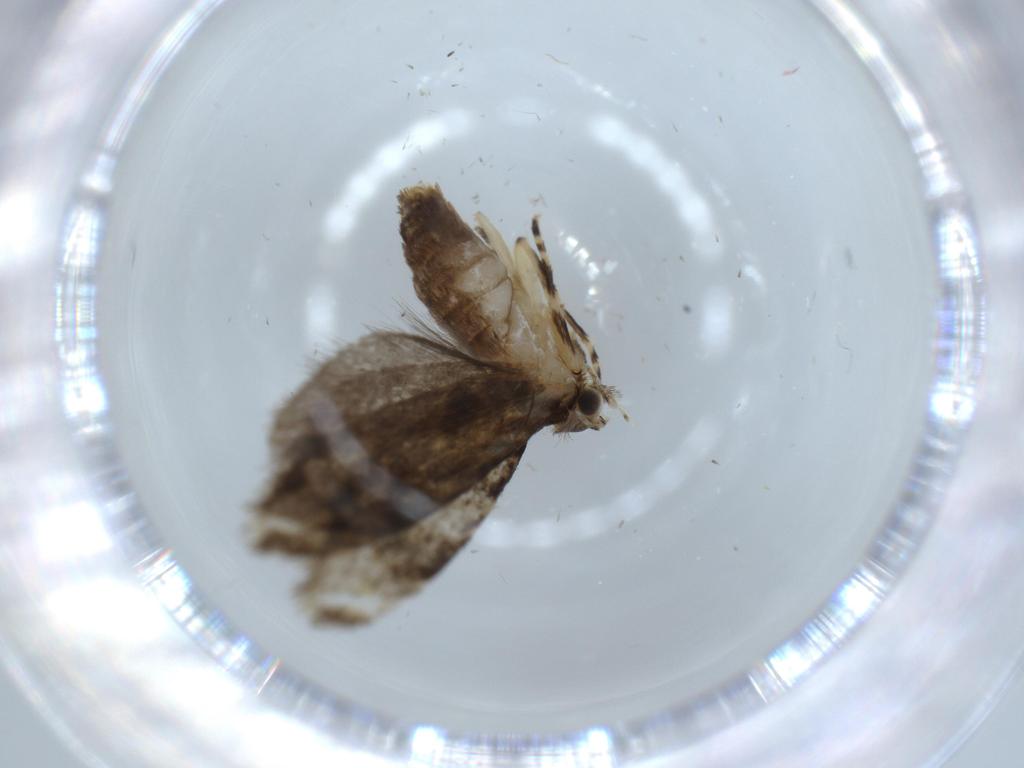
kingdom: Animalia
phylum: Arthropoda
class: Insecta
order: Lepidoptera
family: Tineidae
